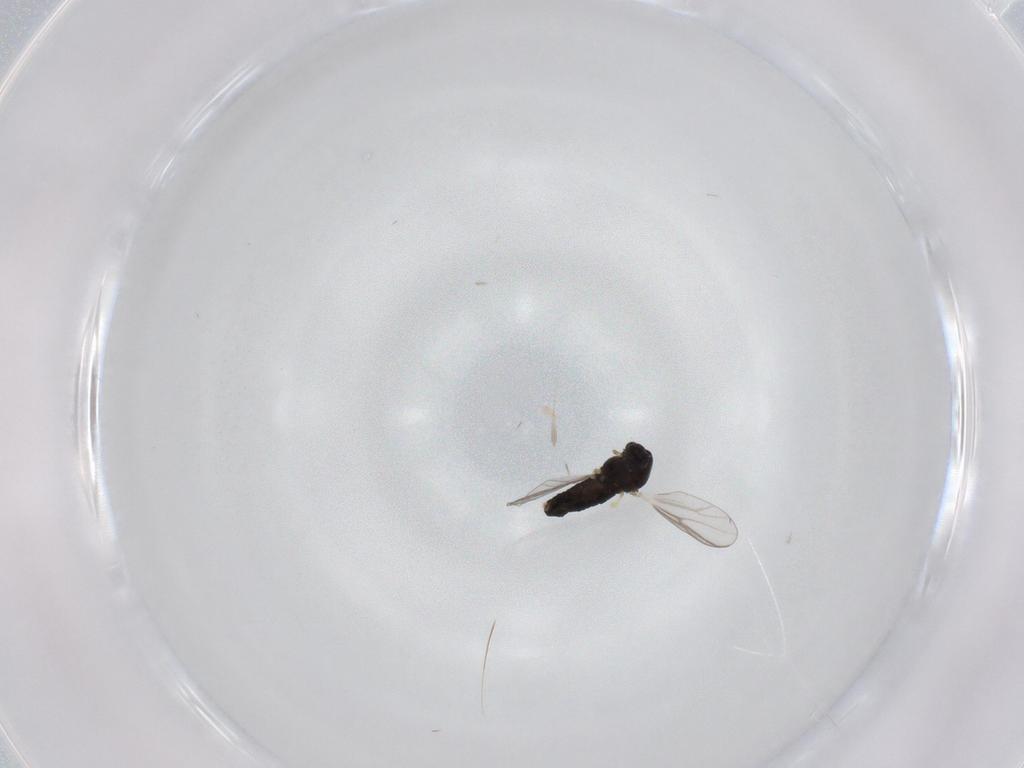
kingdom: Animalia
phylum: Arthropoda
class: Insecta
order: Diptera
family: Chironomidae
